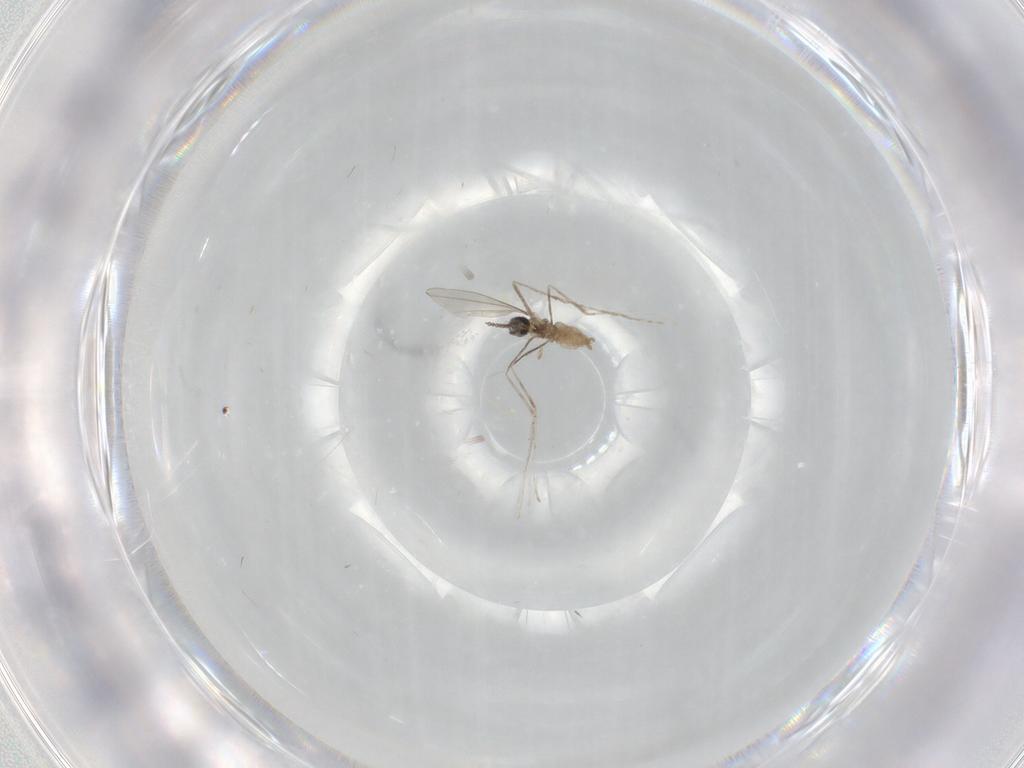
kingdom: Animalia
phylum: Arthropoda
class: Insecta
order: Diptera
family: Cecidomyiidae
